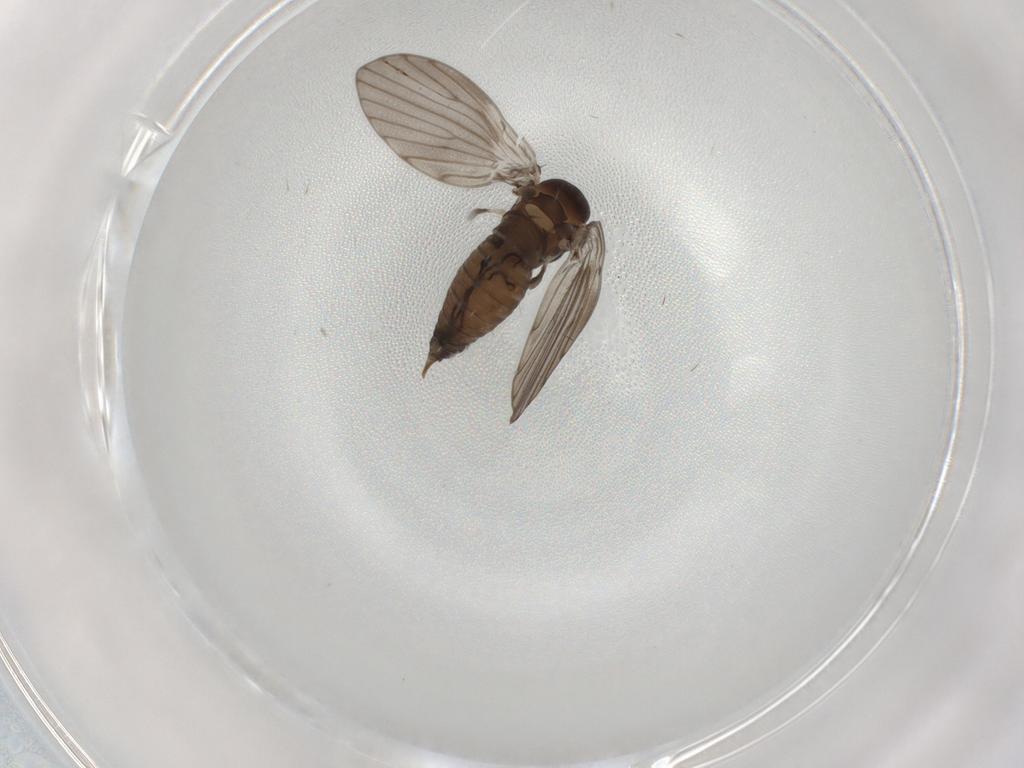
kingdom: Animalia
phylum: Arthropoda
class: Insecta
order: Diptera
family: Psychodidae
